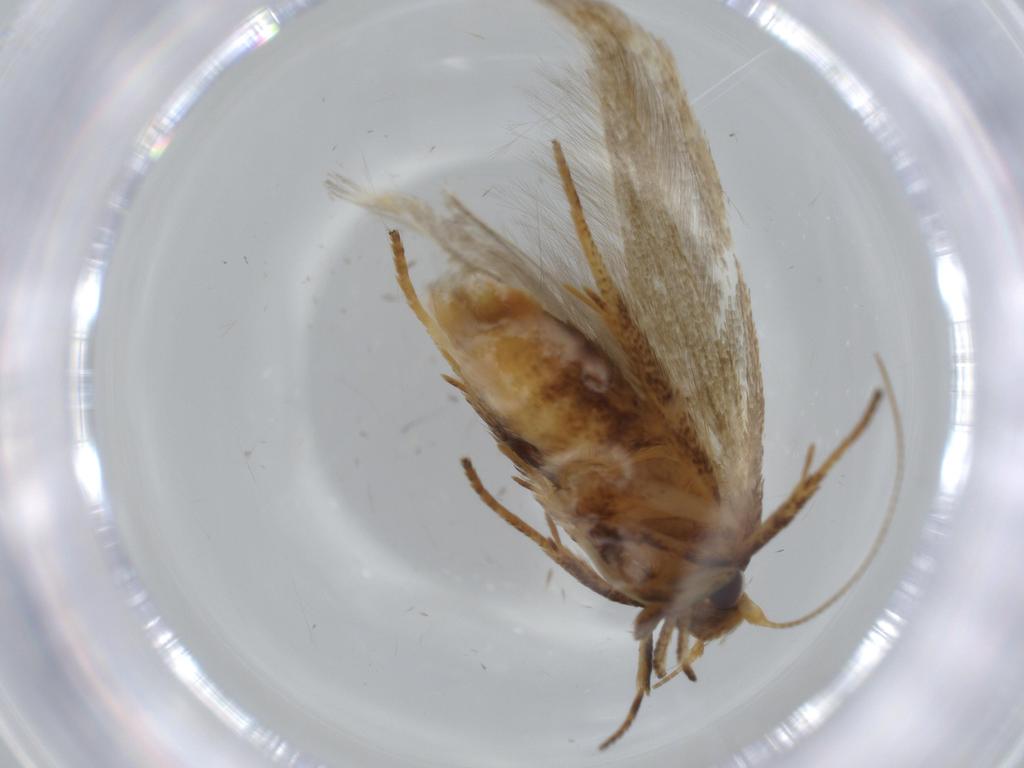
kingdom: Animalia
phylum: Arthropoda
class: Insecta
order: Lepidoptera
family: Coleophoridae
